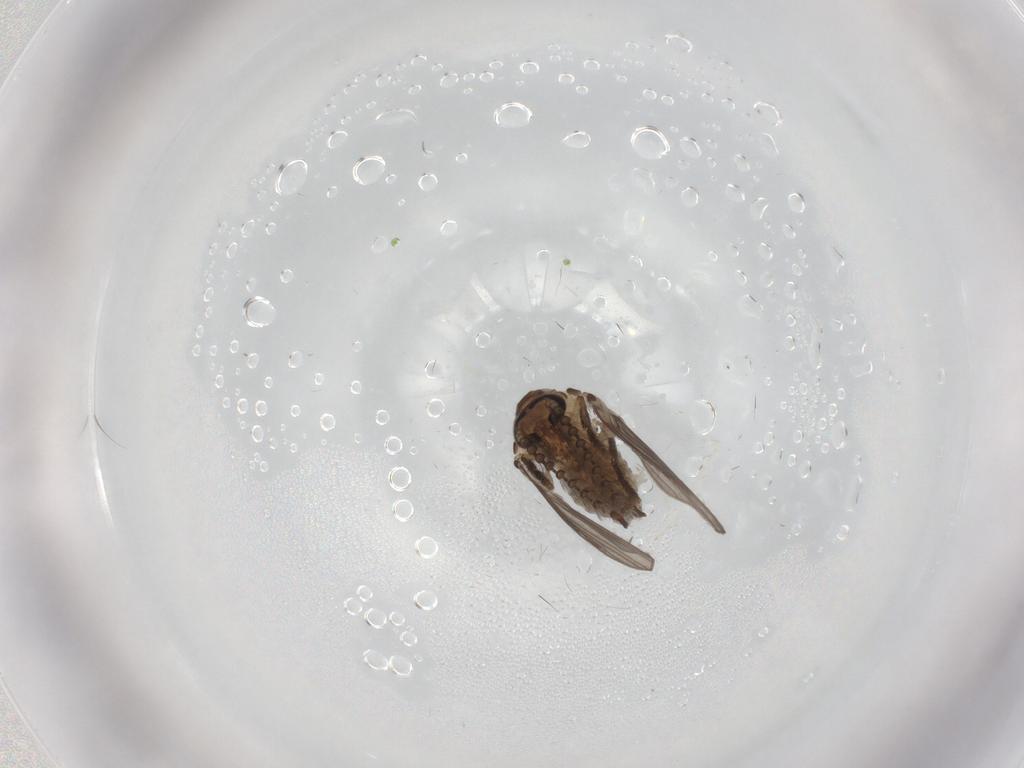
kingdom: Animalia
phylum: Arthropoda
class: Insecta
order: Diptera
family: Psychodidae
